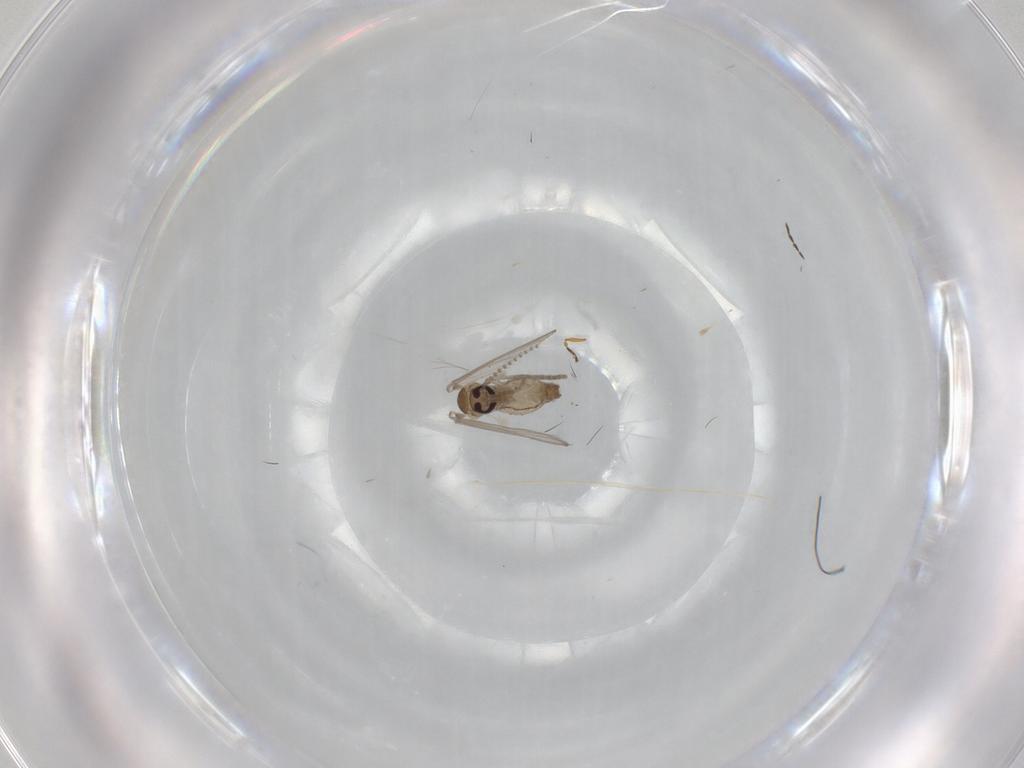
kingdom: Animalia
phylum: Arthropoda
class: Insecta
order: Diptera
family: Psychodidae
